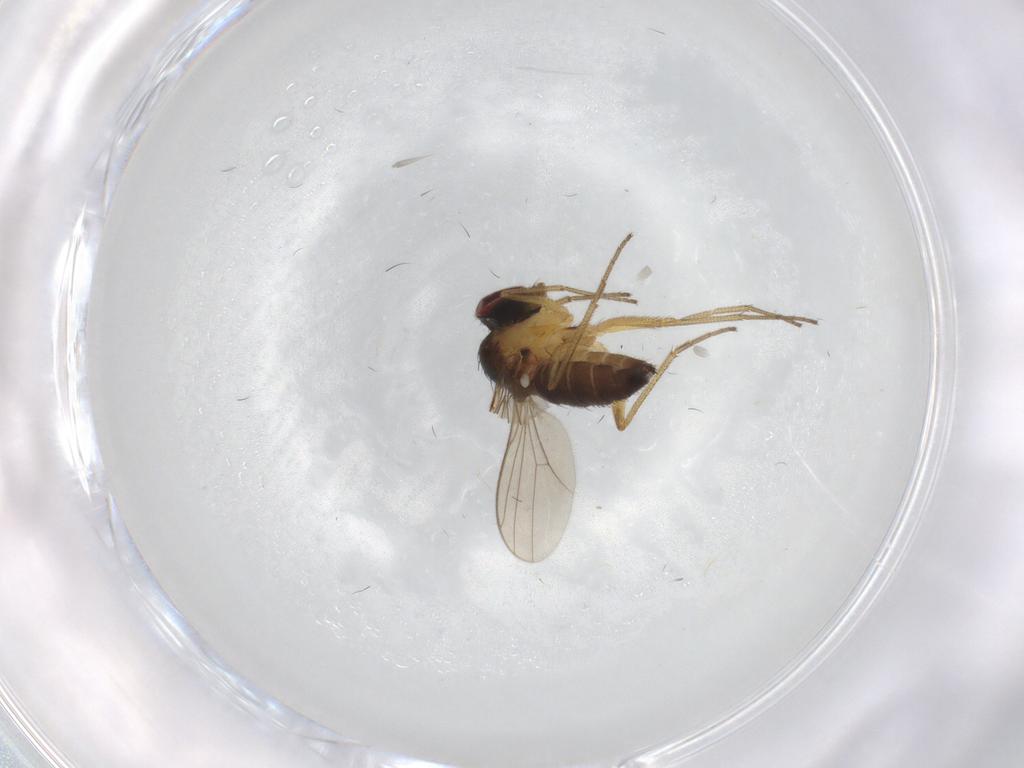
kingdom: Animalia
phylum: Arthropoda
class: Insecta
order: Diptera
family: Dolichopodidae
